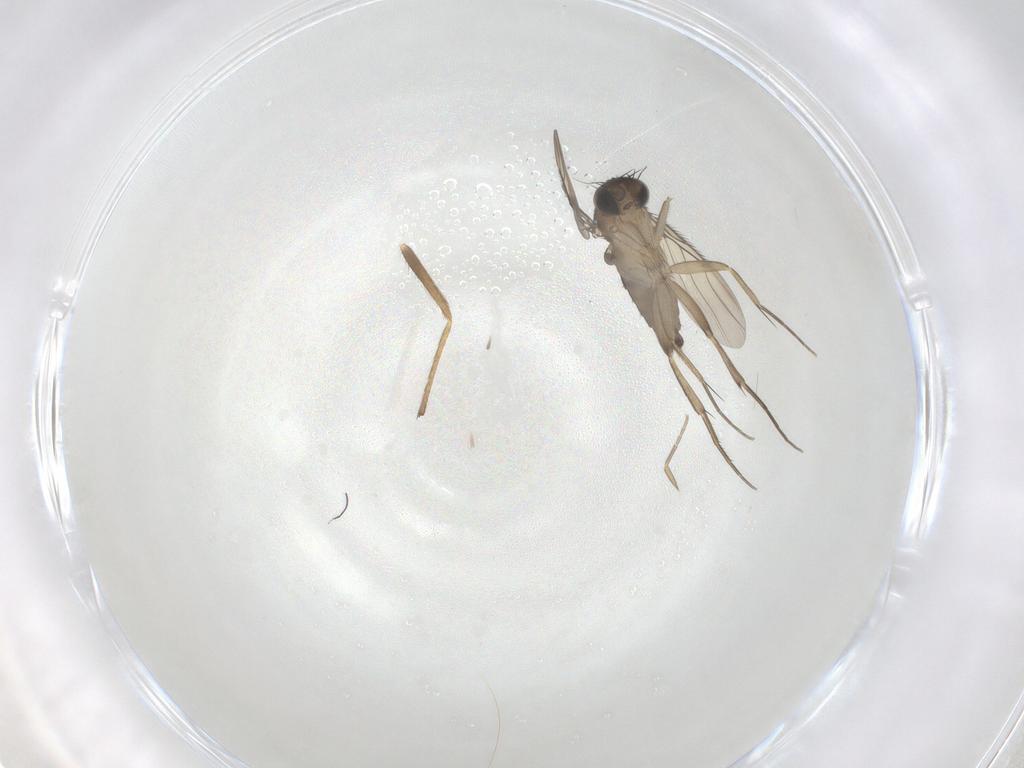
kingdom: Animalia
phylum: Arthropoda
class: Insecta
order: Diptera
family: Phoridae
